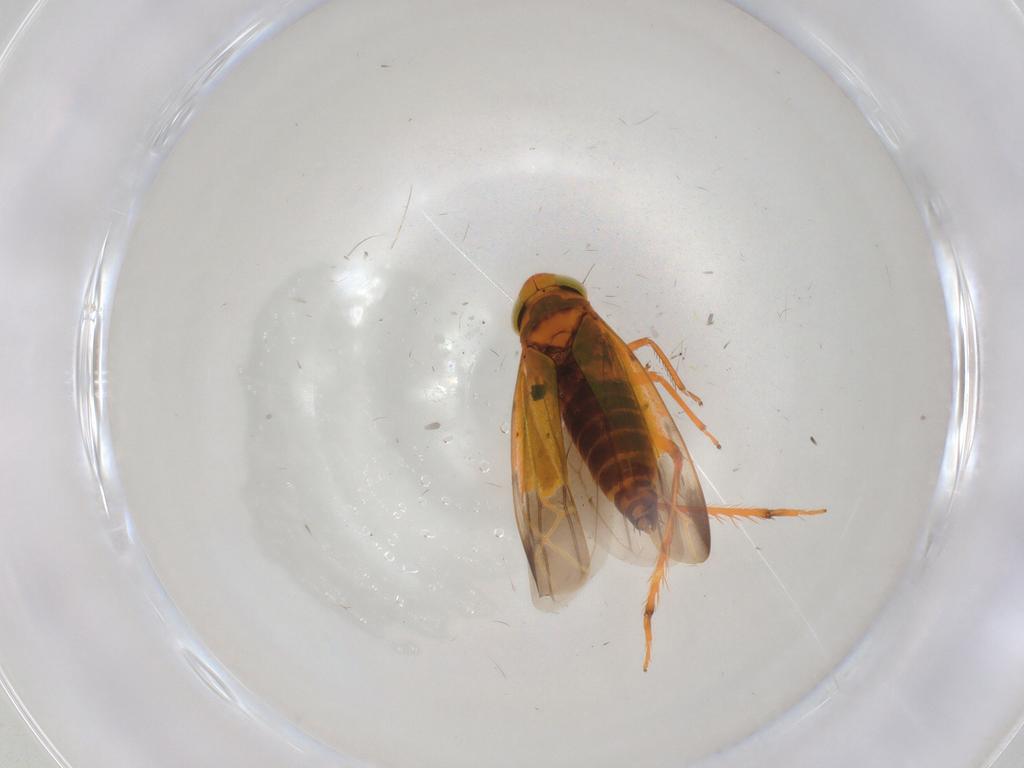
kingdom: Animalia
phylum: Arthropoda
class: Insecta
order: Hemiptera
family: Cicadellidae
